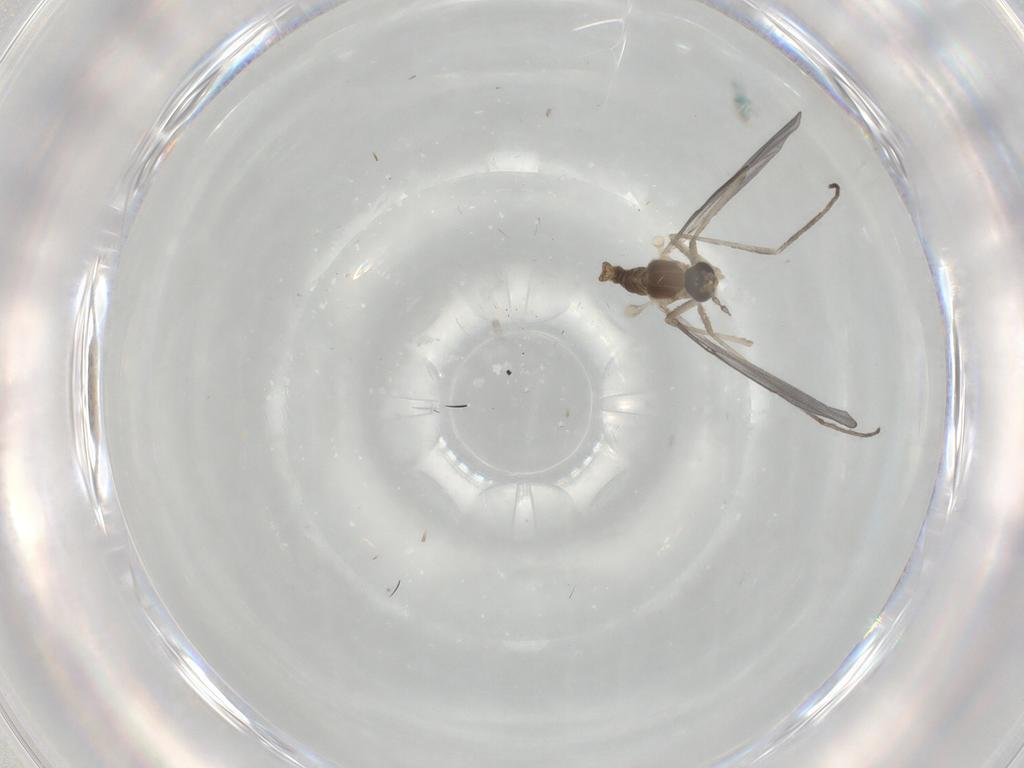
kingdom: Animalia
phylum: Arthropoda
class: Insecta
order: Diptera
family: Cecidomyiidae
